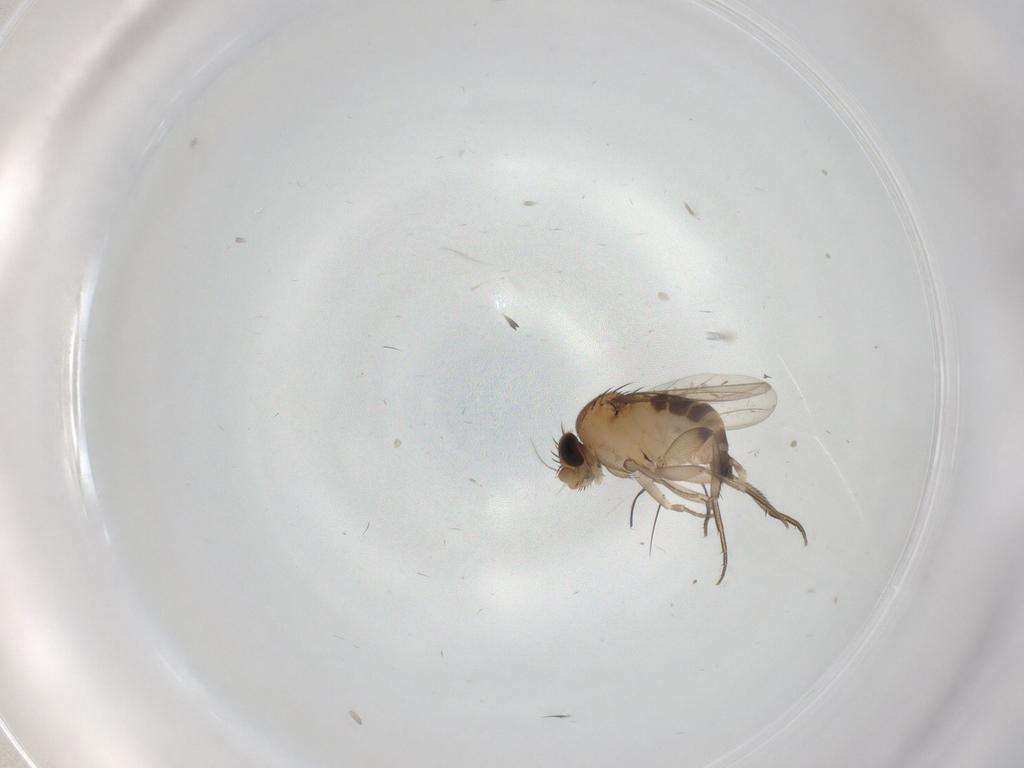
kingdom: Animalia
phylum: Arthropoda
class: Insecta
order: Diptera
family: Phoridae
